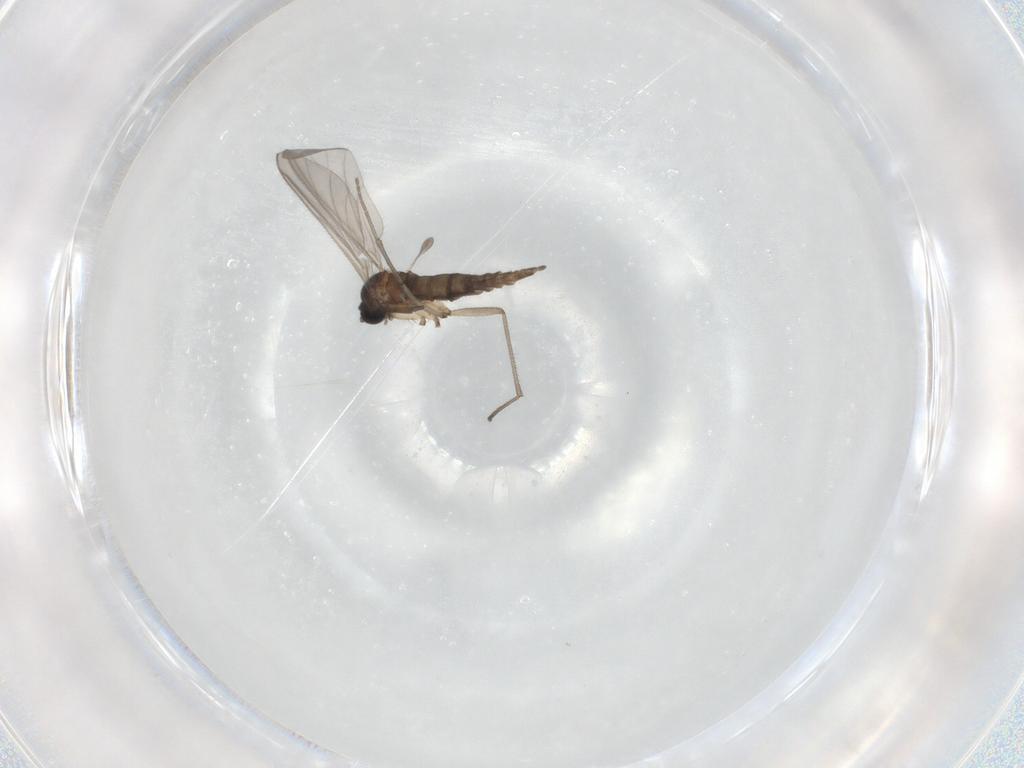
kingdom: Animalia
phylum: Arthropoda
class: Insecta
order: Diptera
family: Sciaridae
